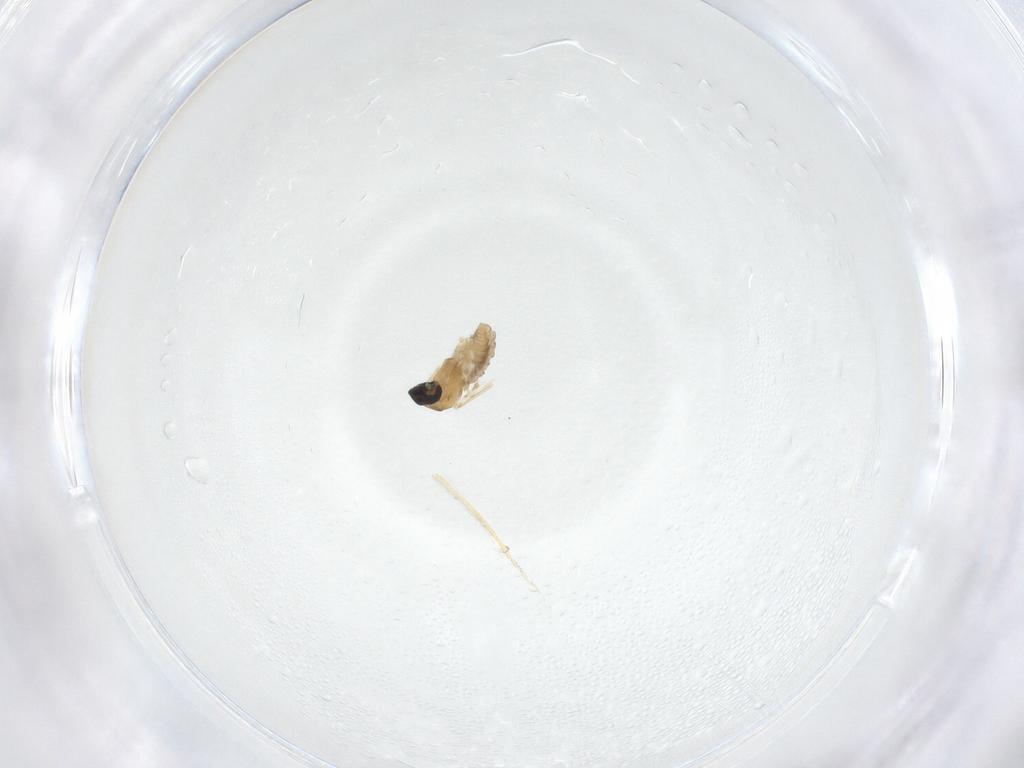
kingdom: Animalia
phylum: Arthropoda
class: Insecta
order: Diptera
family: Cecidomyiidae
